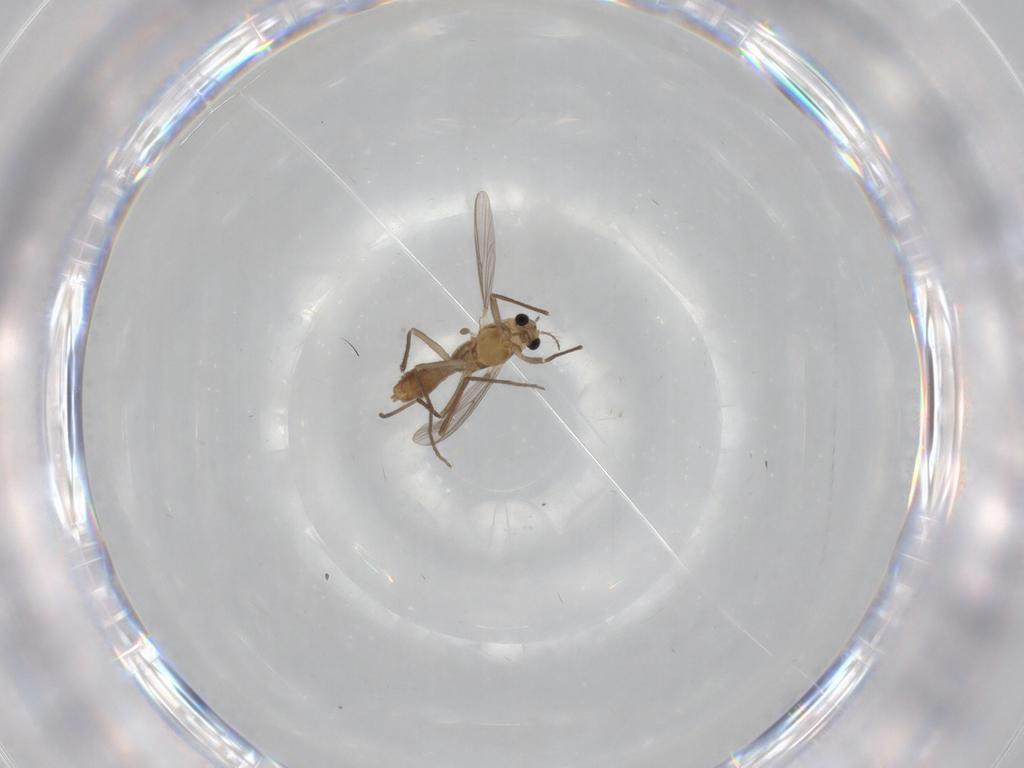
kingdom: Animalia
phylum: Arthropoda
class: Insecta
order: Diptera
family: Chironomidae
